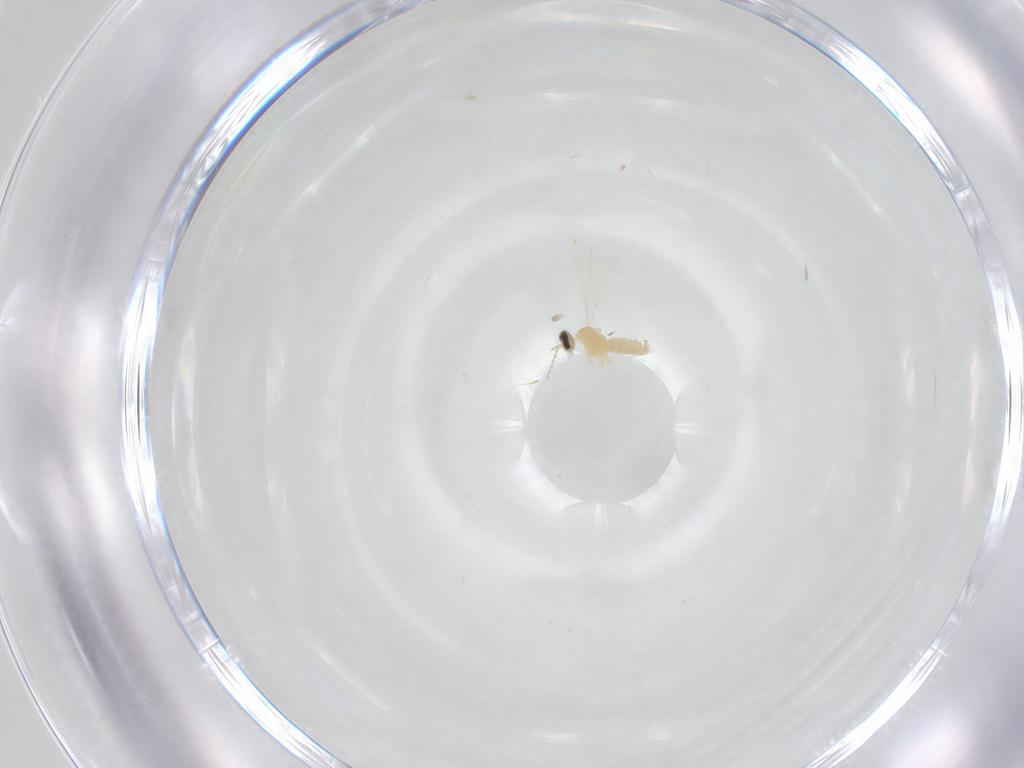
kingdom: Animalia
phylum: Arthropoda
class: Insecta
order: Diptera
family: Cecidomyiidae
